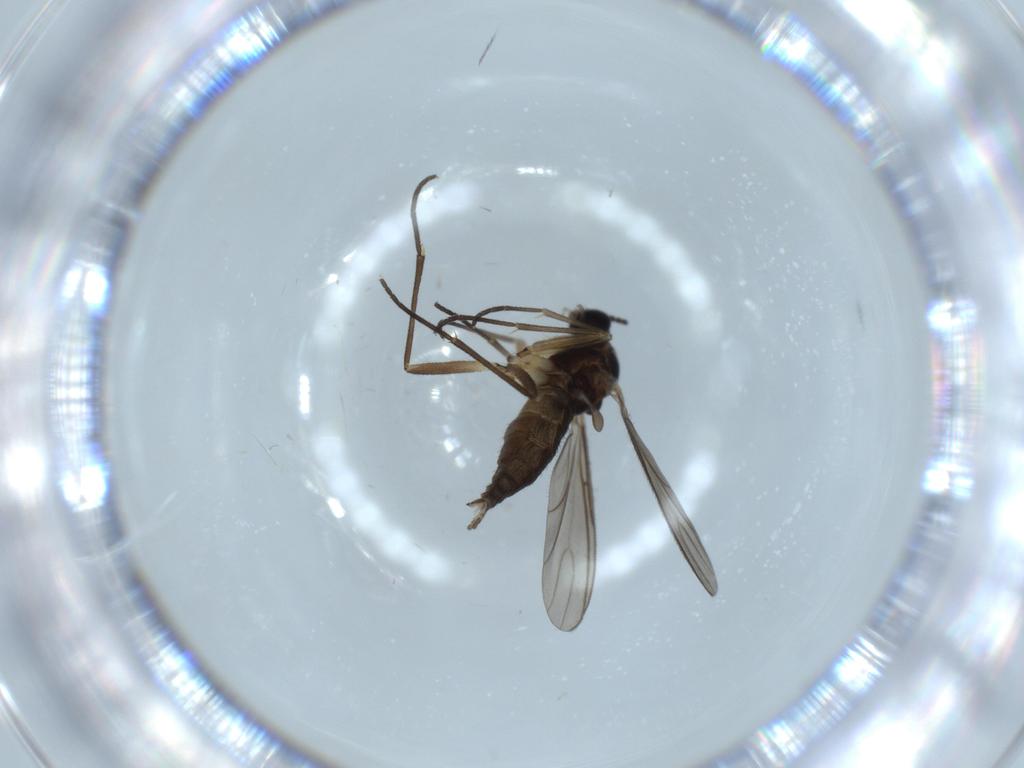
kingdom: Animalia
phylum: Arthropoda
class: Insecta
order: Diptera
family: Sciaridae
